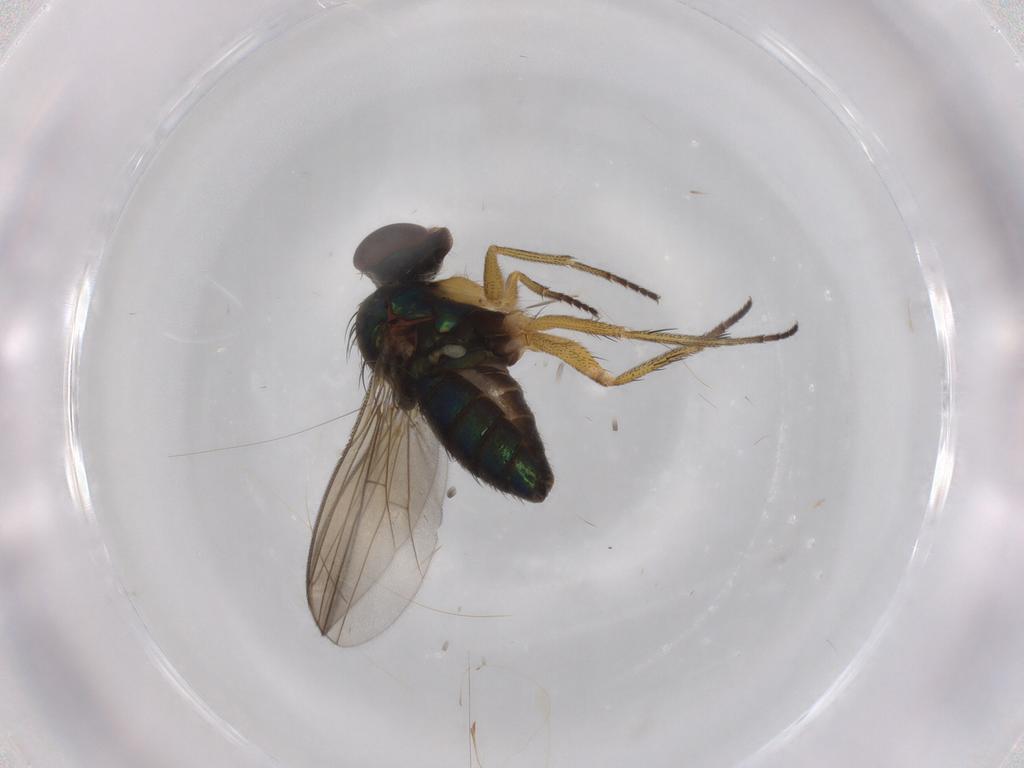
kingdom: Animalia
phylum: Arthropoda
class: Insecta
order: Diptera
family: Dolichopodidae
